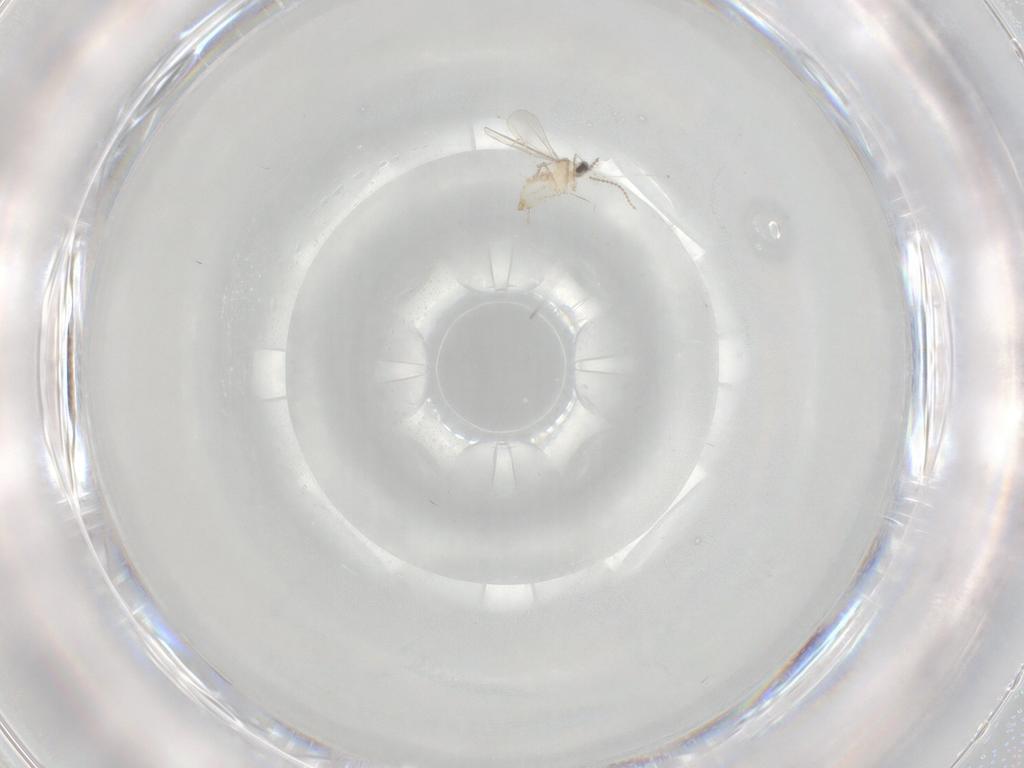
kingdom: Animalia
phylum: Arthropoda
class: Insecta
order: Diptera
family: Cecidomyiidae
